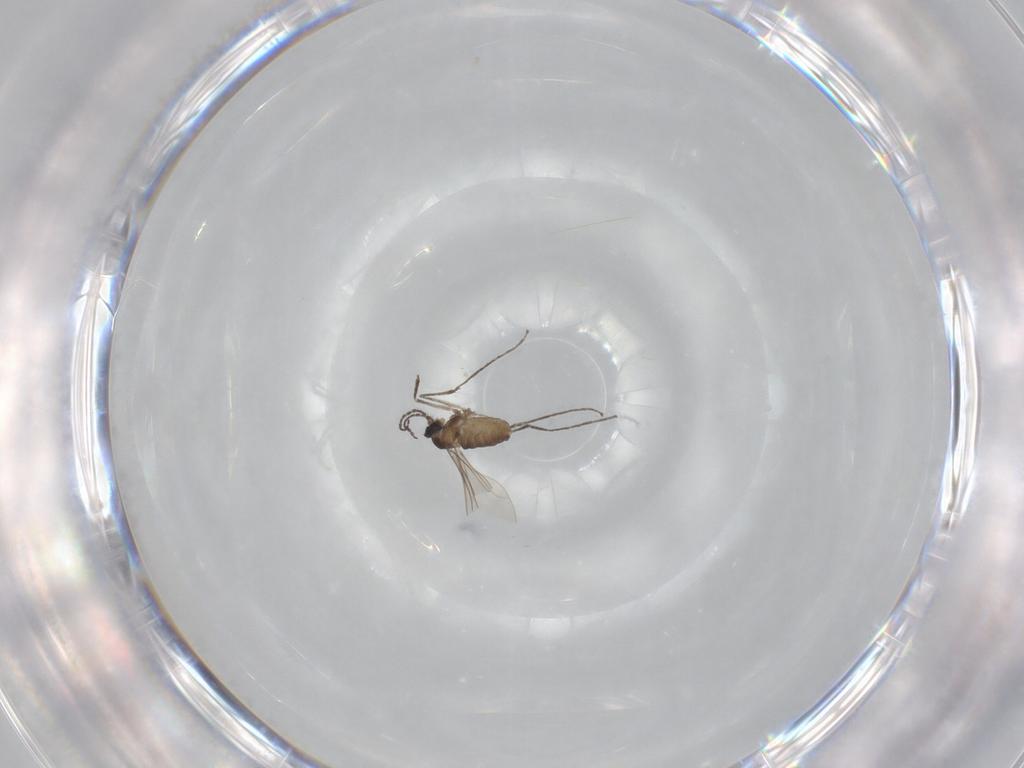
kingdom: Animalia
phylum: Arthropoda
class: Insecta
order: Diptera
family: Cecidomyiidae
